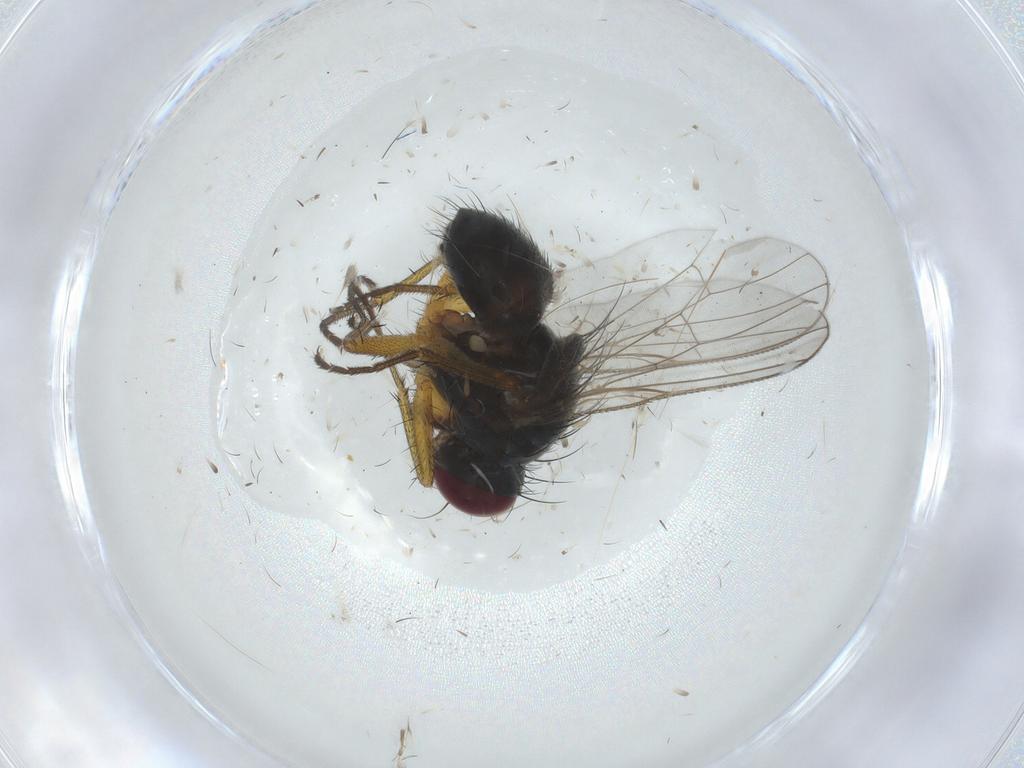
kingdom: Animalia
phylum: Arthropoda
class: Insecta
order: Diptera
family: Muscidae
